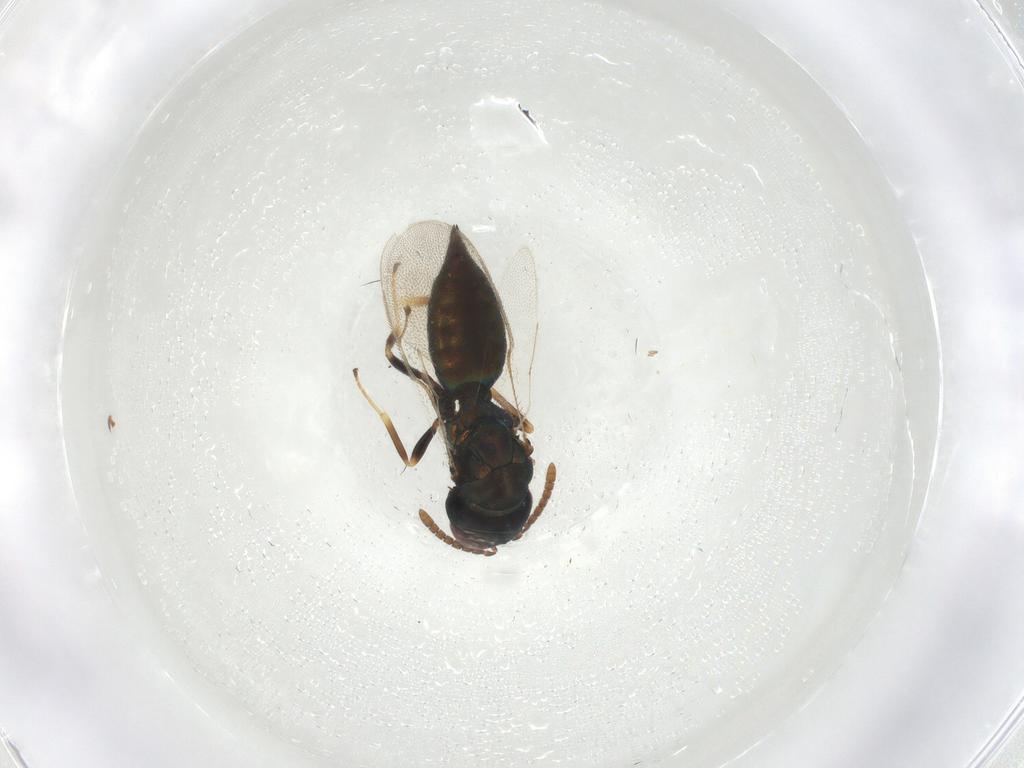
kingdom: Animalia
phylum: Arthropoda
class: Insecta
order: Hymenoptera
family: Pteromalidae
